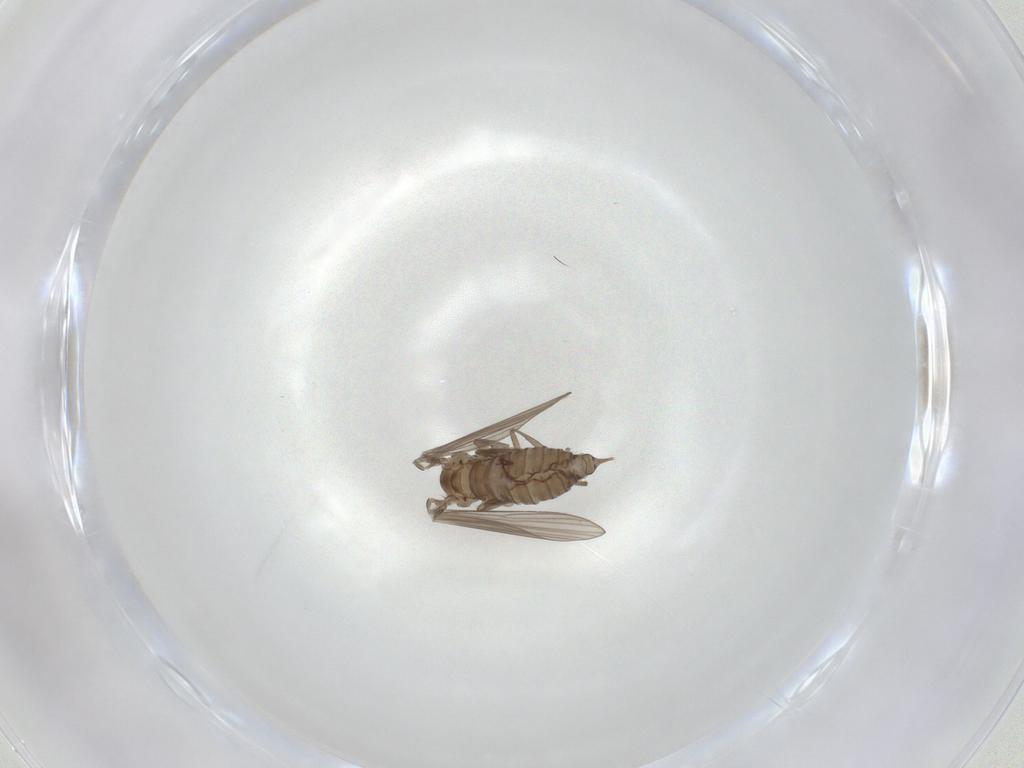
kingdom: Animalia
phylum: Arthropoda
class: Insecta
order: Diptera
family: Psychodidae
